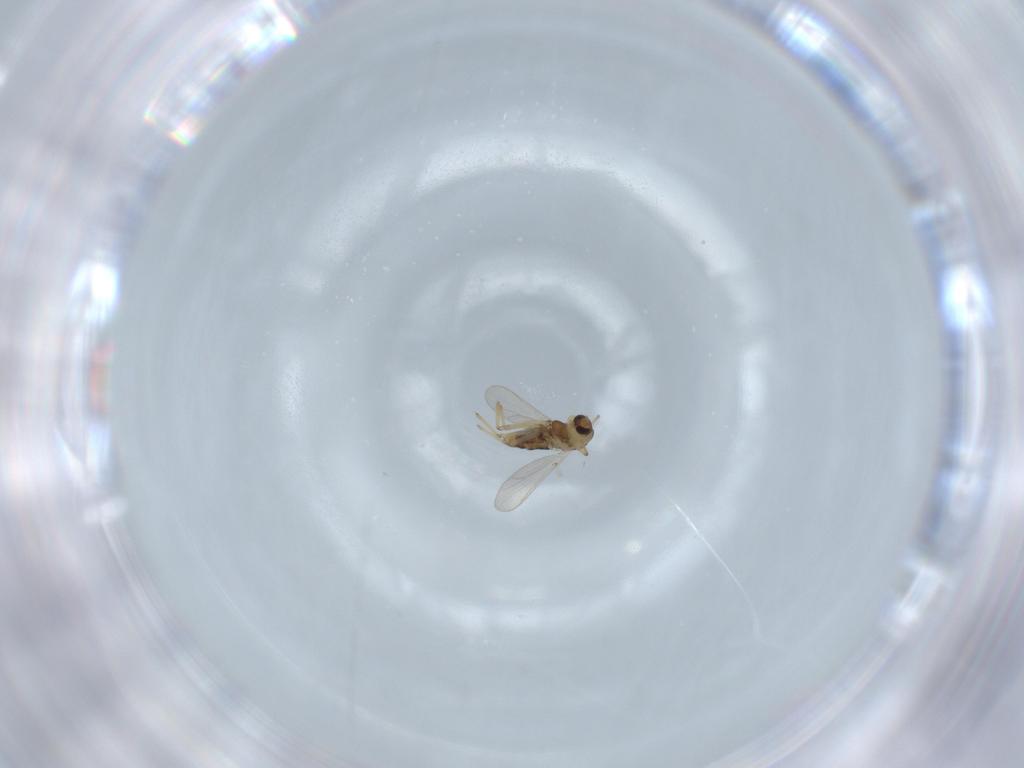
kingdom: Animalia
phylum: Arthropoda
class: Insecta
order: Diptera
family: Chironomidae
